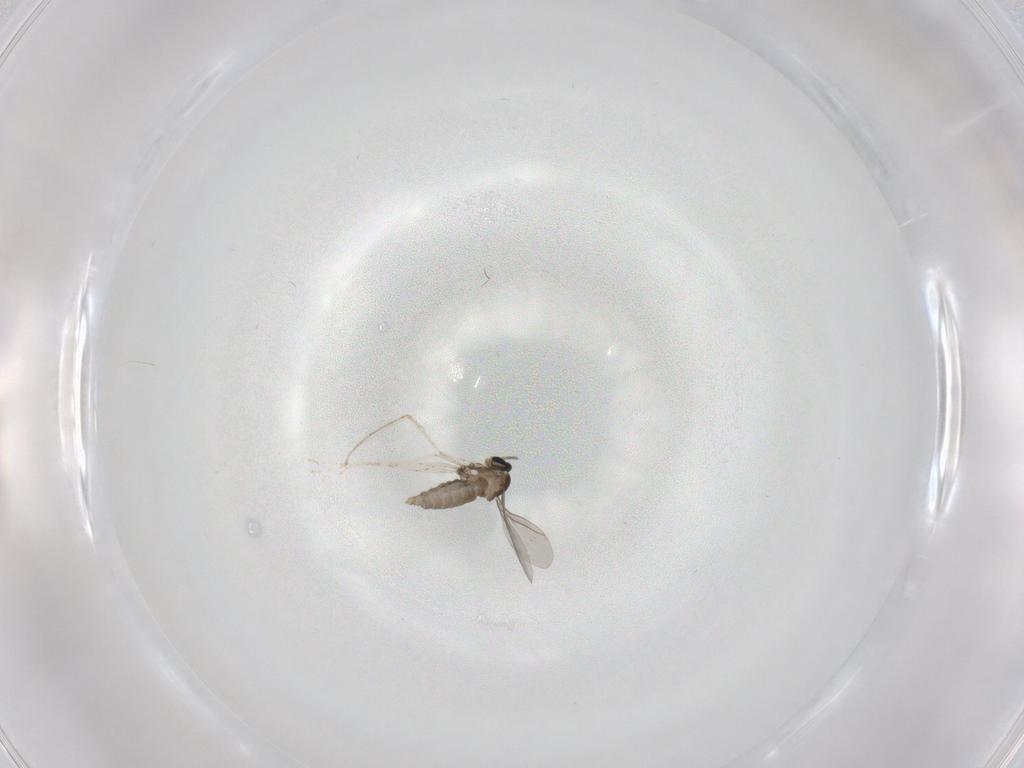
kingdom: Animalia
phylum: Arthropoda
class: Insecta
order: Diptera
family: Cecidomyiidae
